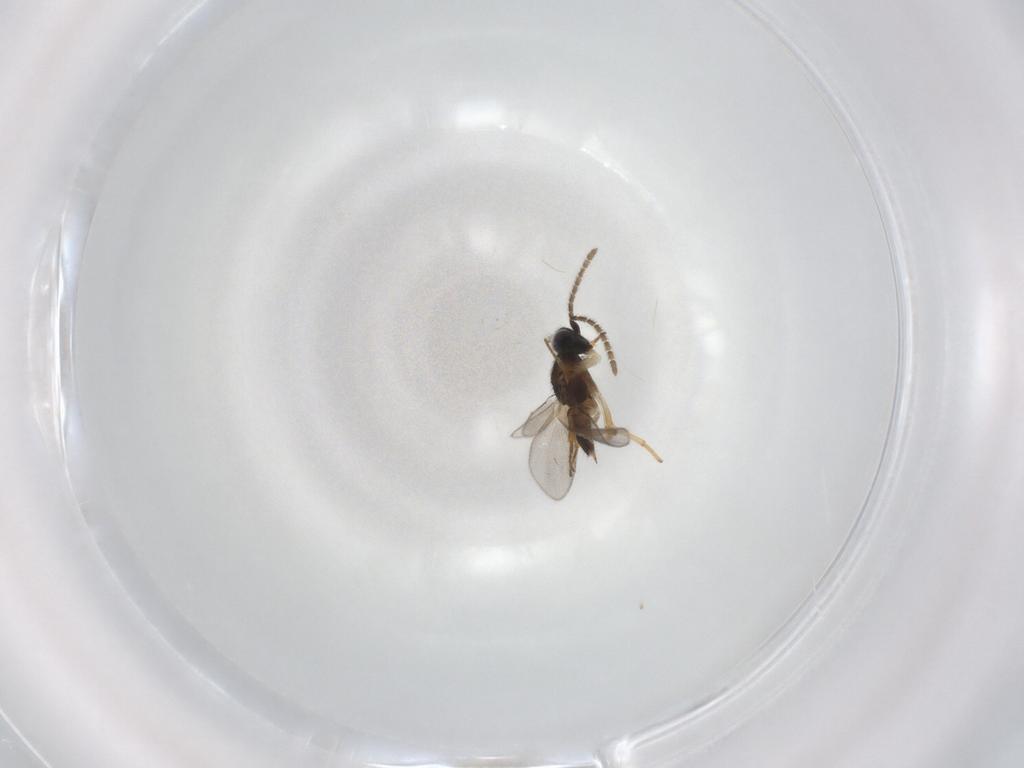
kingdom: Animalia
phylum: Arthropoda
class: Insecta
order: Hymenoptera
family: Encyrtidae
